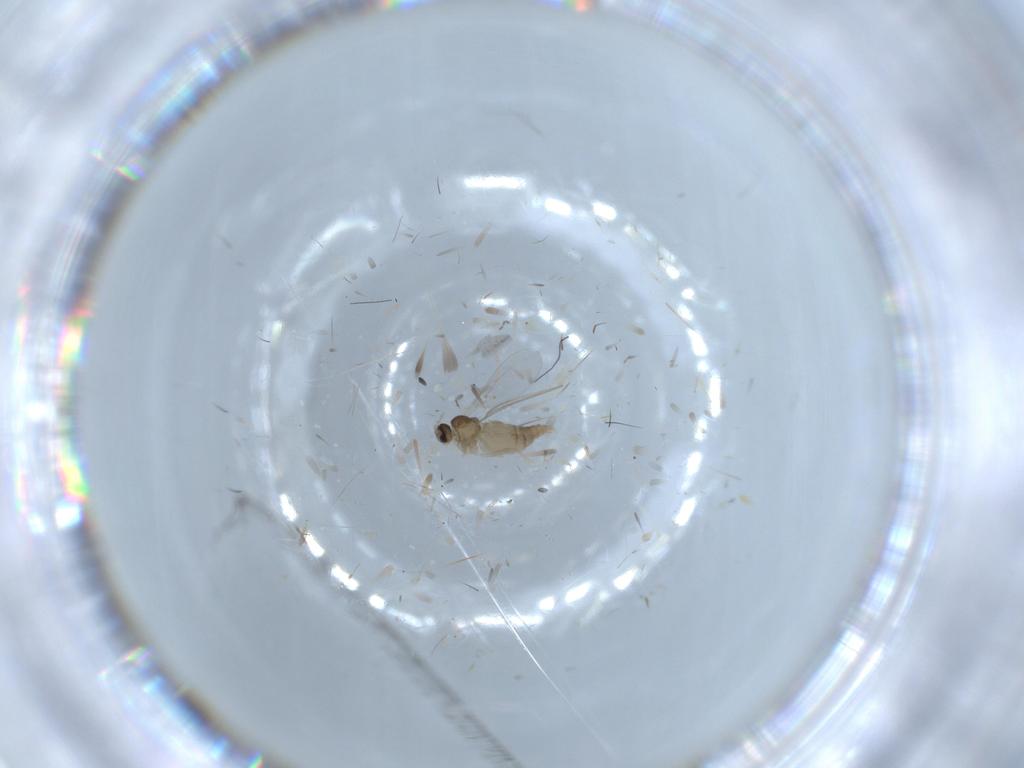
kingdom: Animalia
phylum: Arthropoda
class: Insecta
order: Diptera
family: Cecidomyiidae
